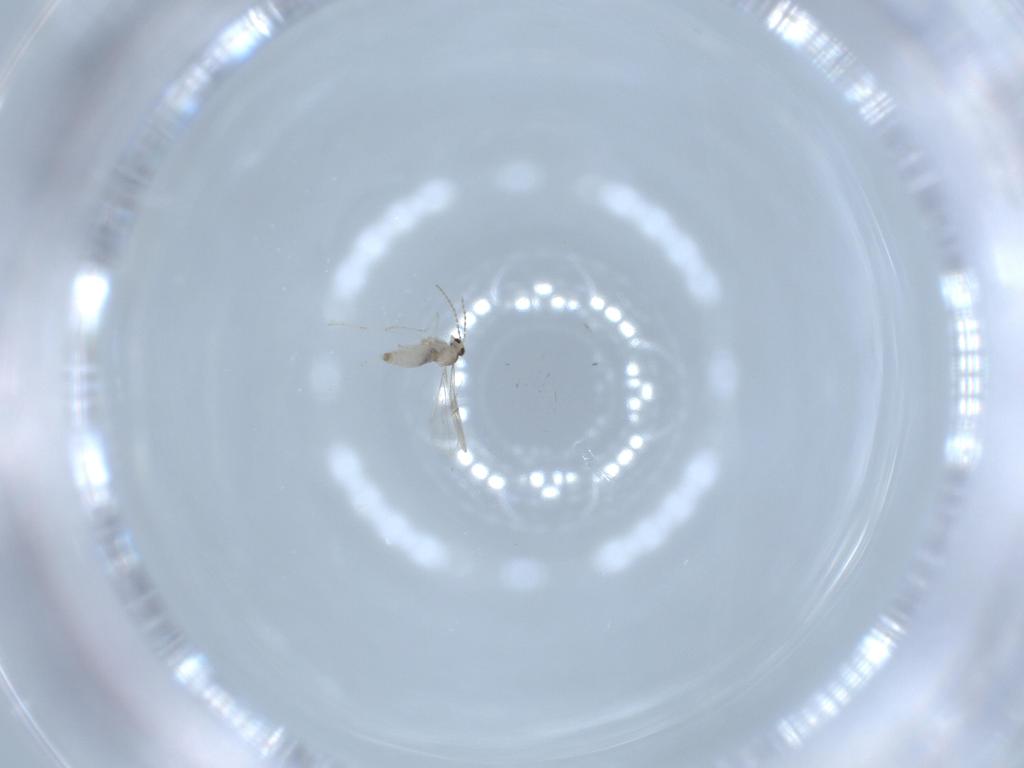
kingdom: Animalia
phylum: Arthropoda
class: Insecta
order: Diptera
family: Cecidomyiidae
